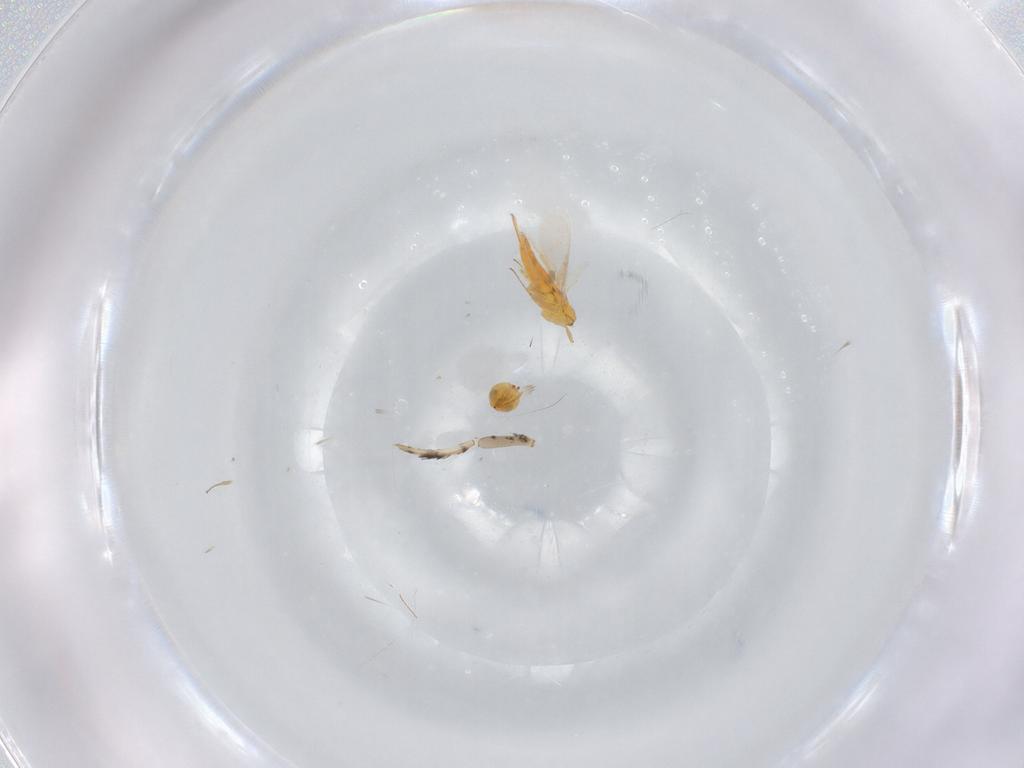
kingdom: Animalia
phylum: Arthropoda
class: Insecta
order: Hymenoptera
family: Aphelinidae
